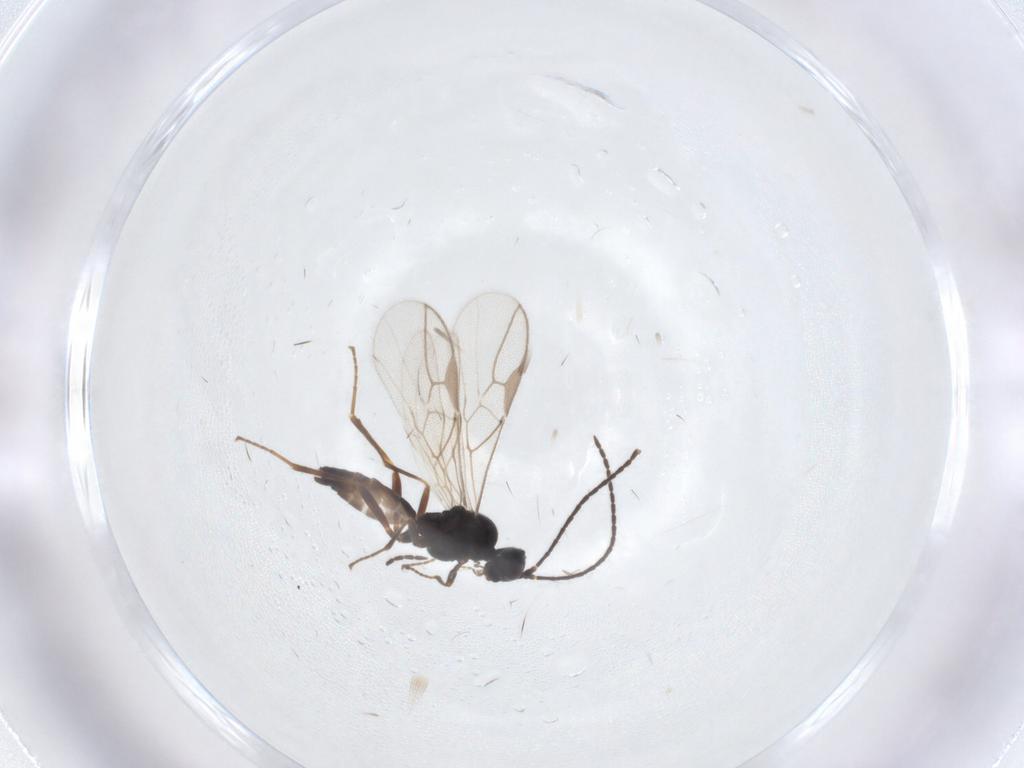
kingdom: Animalia
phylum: Arthropoda
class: Insecta
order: Hymenoptera
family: Braconidae
